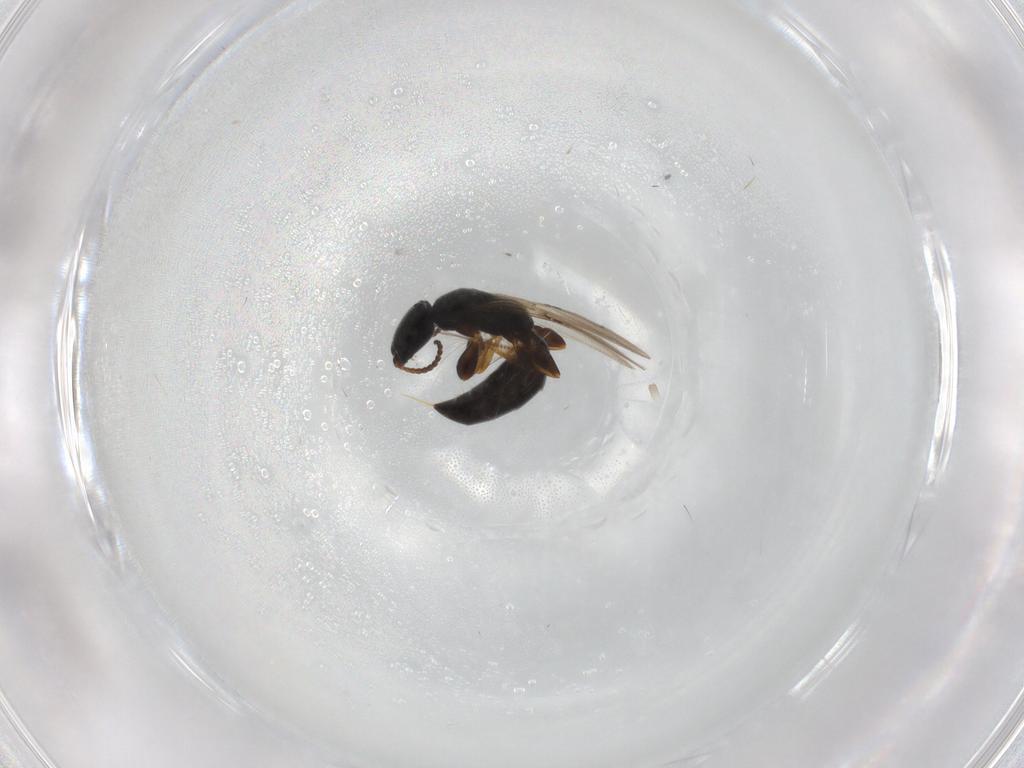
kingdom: Animalia
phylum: Arthropoda
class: Insecta
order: Hymenoptera
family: Bethylidae
